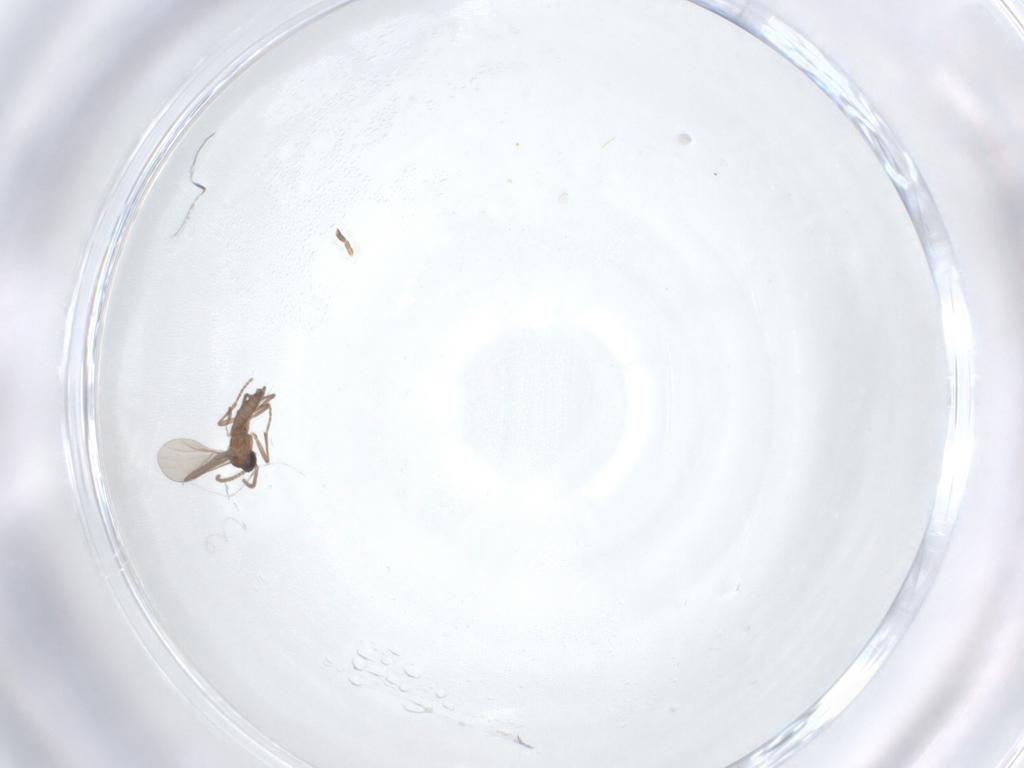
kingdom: Animalia
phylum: Arthropoda
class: Insecta
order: Diptera
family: Sciaridae
